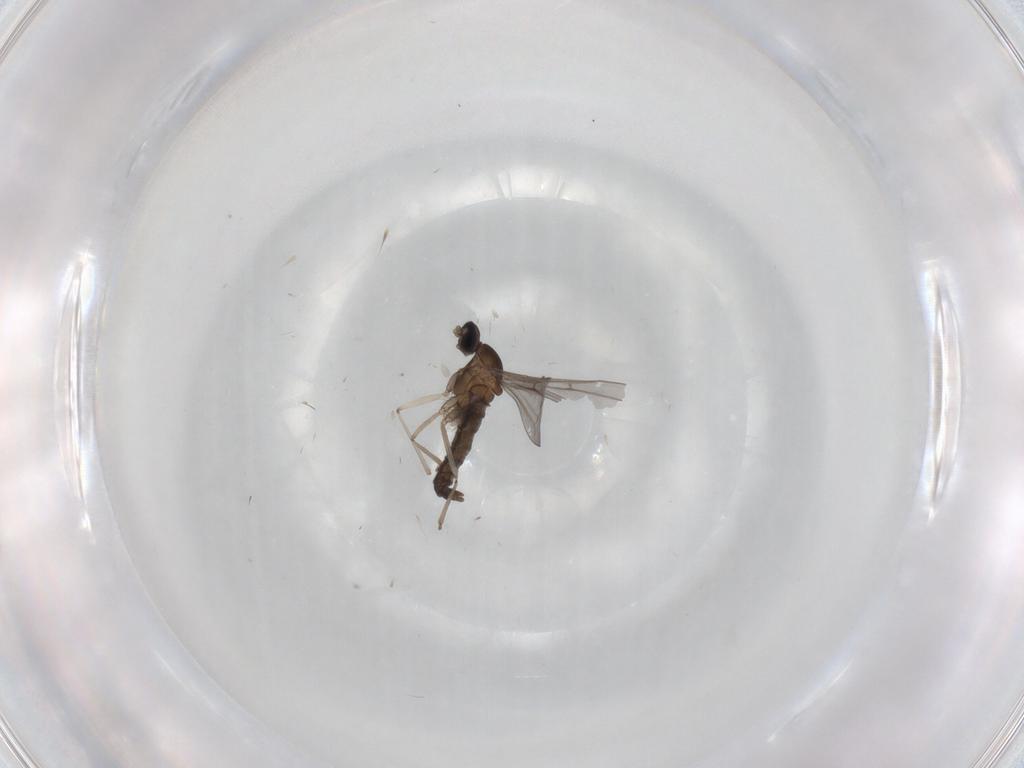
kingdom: Animalia
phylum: Arthropoda
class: Insecta
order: Diptera
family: Cecidomyiidae
